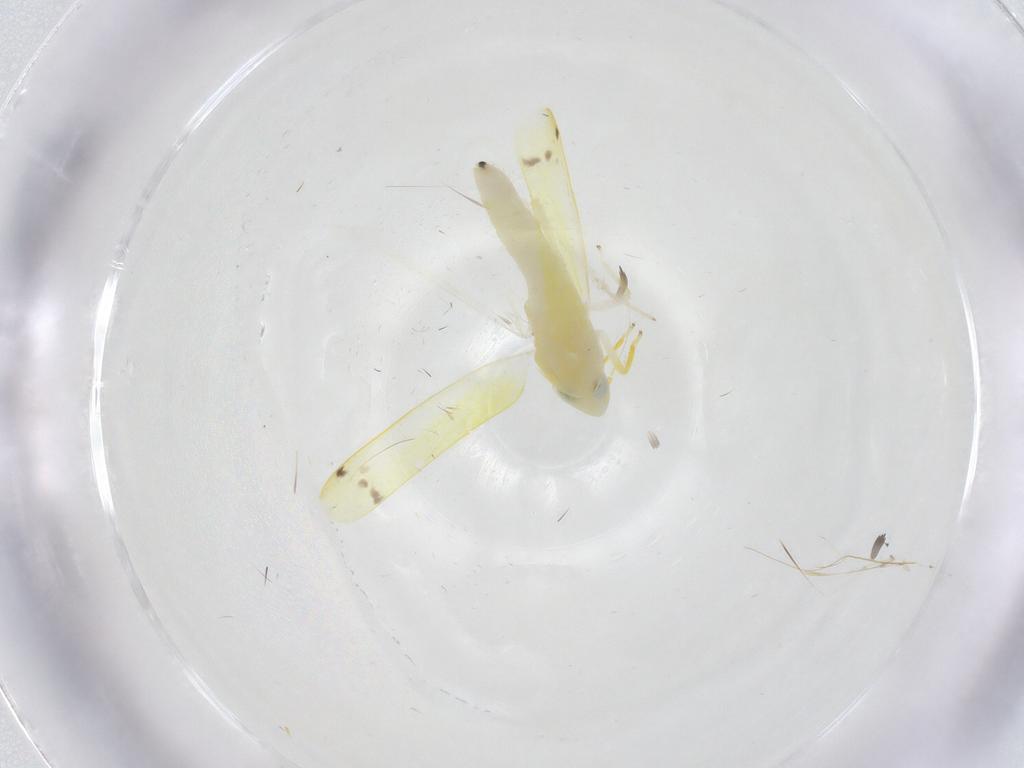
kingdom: Animalia
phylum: Arthropoda
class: Insecta
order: Hemiptera
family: Cicadellidae
